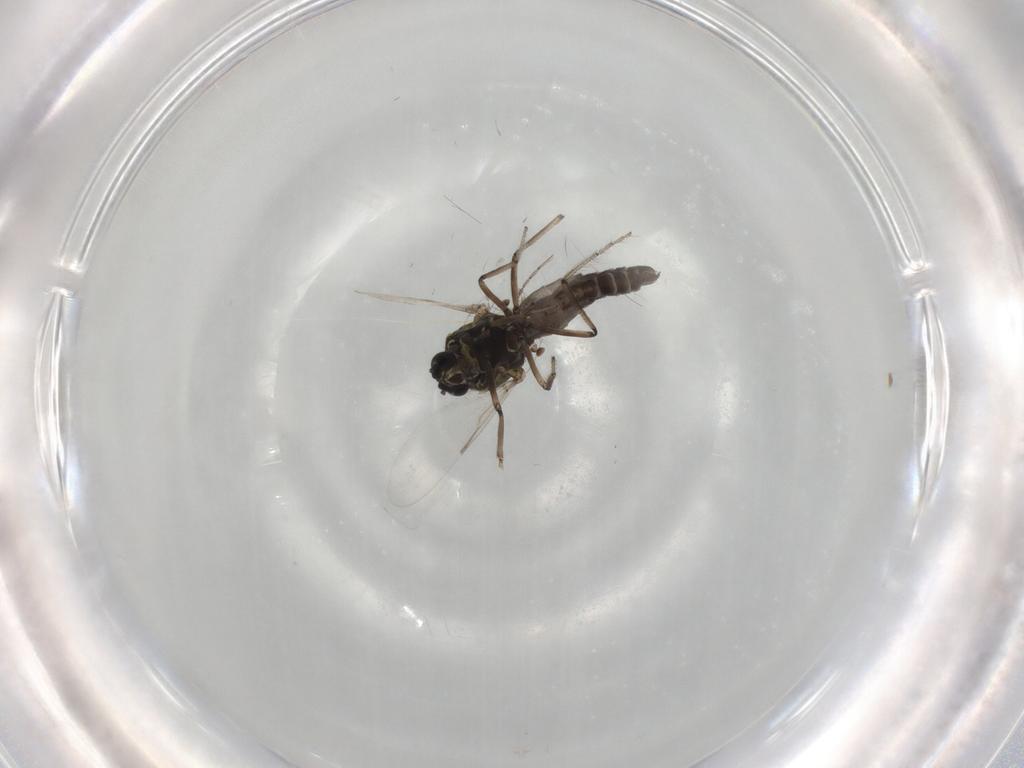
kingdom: Animalia
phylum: Arthropoda
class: Insecta
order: Diptera
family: Ceratopogonidae
